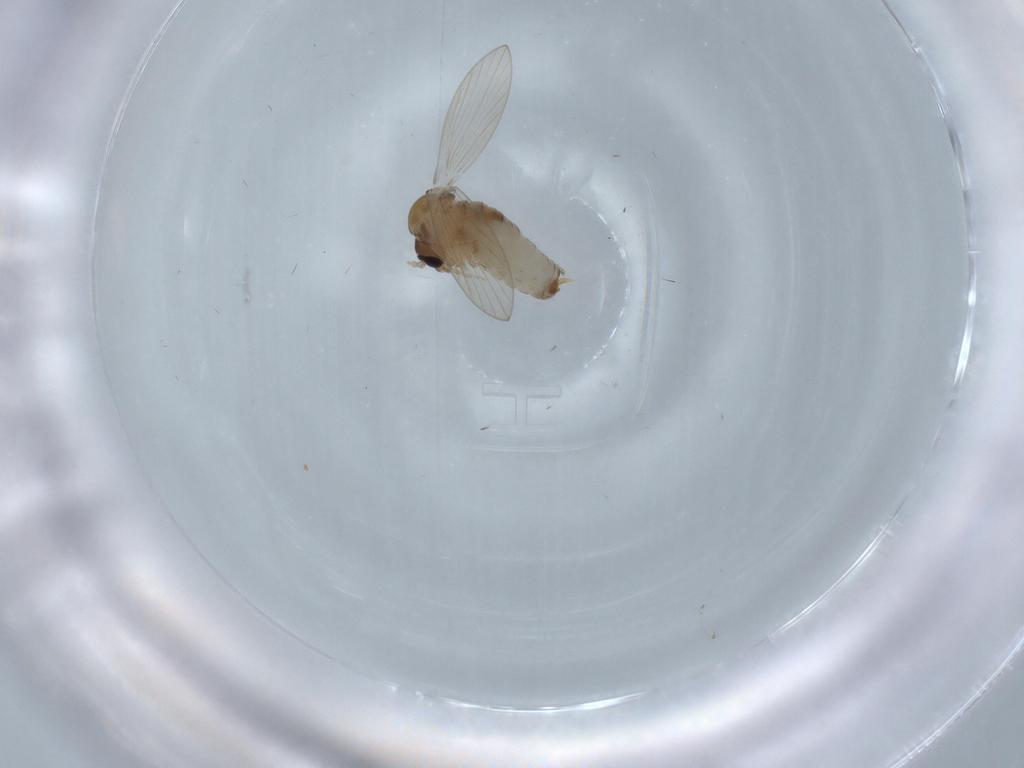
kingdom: Animalia
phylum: Arthropoda
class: Insecta
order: Diptera
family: Psychodidae
